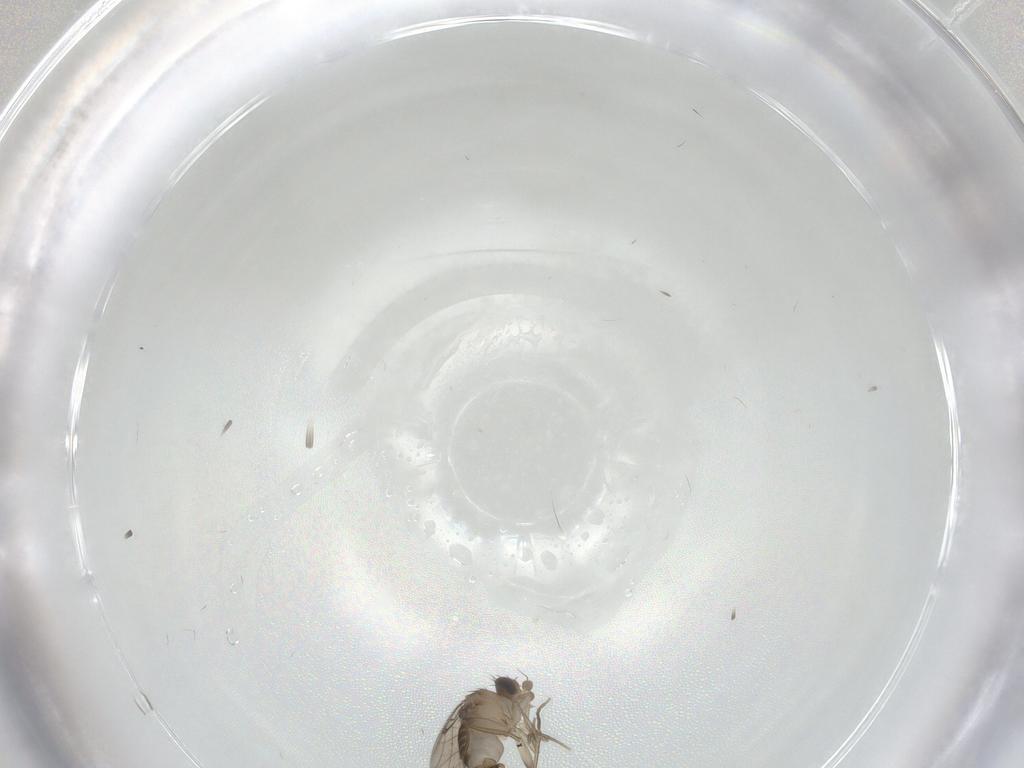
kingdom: Animalia
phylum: Arthropoda
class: Insecta
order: Diptera
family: Phoridae
